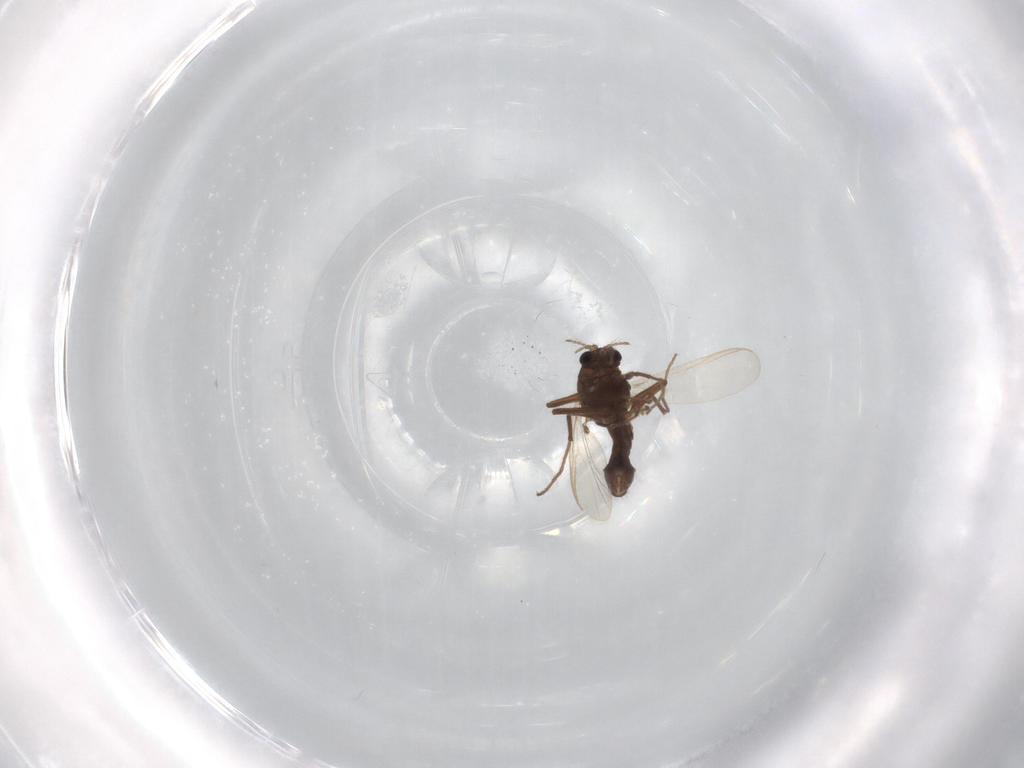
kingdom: Animalia
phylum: Arthropoda
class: Insecta
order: Diptera
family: Chironomidae
